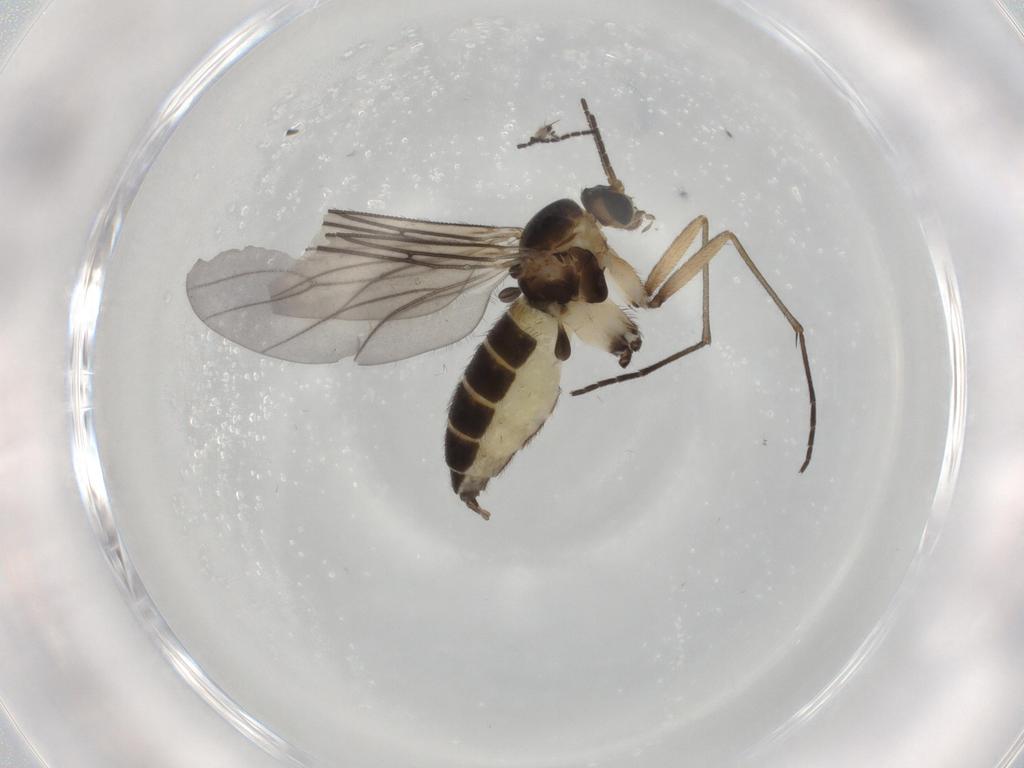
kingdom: Animalia
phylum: Arthropoda
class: Insecta
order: Diptera
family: Sciaridae
